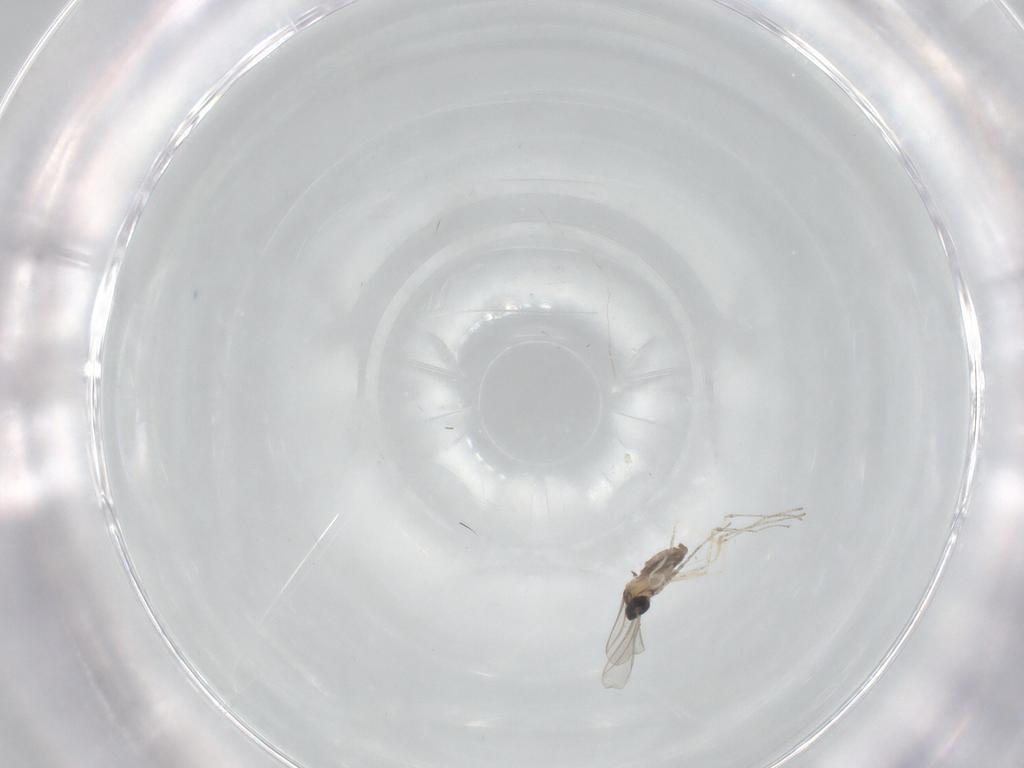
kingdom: Animalia
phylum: Arthropoda
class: Insecta
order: Diptera
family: Cecidomyiidae
